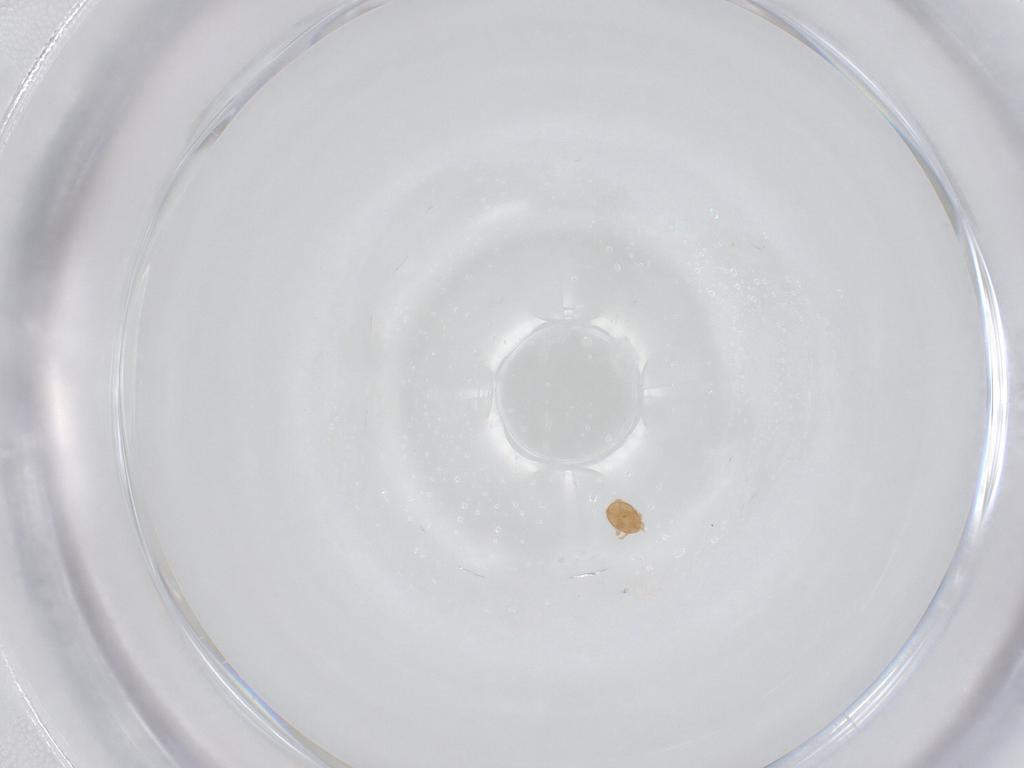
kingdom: Animalia
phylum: Arthropoda
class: Arachnida
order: Mesostigmata
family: Eviphididae
